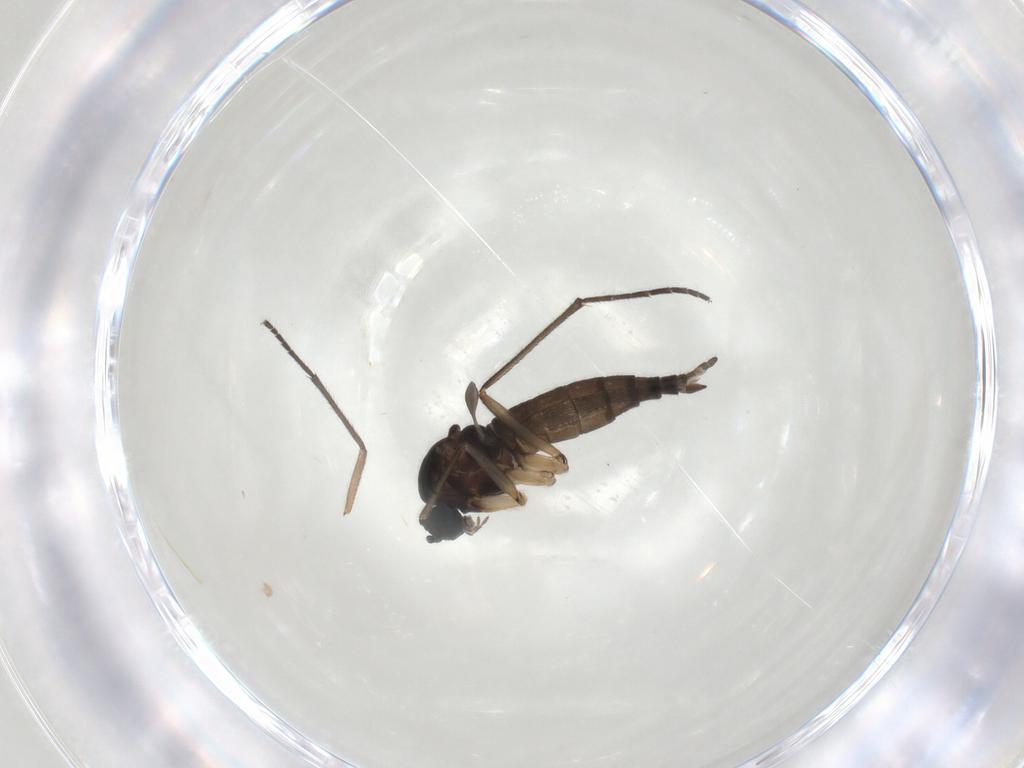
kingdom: Animalia
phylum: Arthropoda
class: Insecta
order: Diptera
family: Sciaridae
